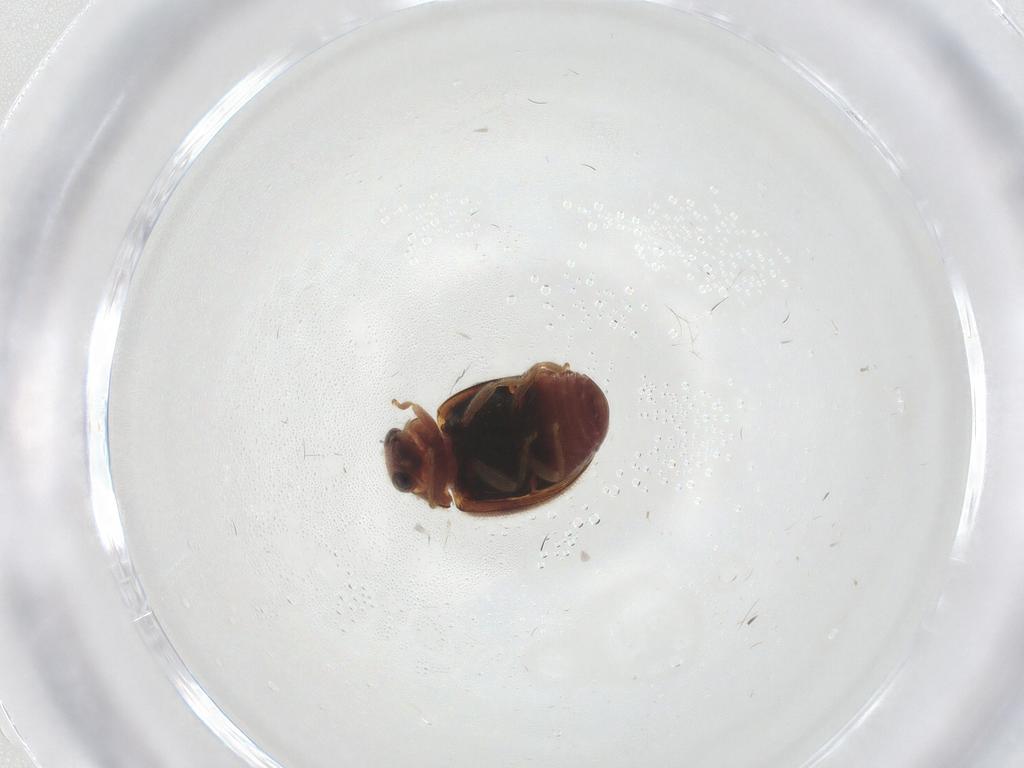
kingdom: Animalia
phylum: Arthropoda
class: Insecta
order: Coleoptera
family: Coccinellidae
